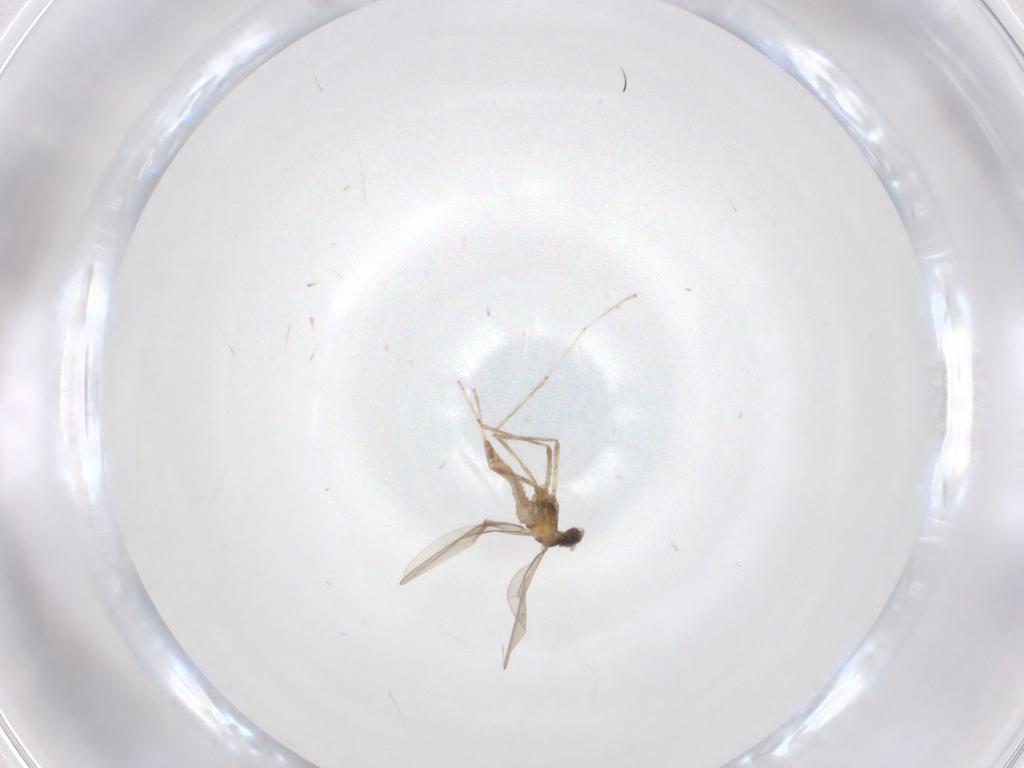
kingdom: Animalia
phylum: Arthropoda
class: Insecta
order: Diptera
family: Cecidomyiidae
